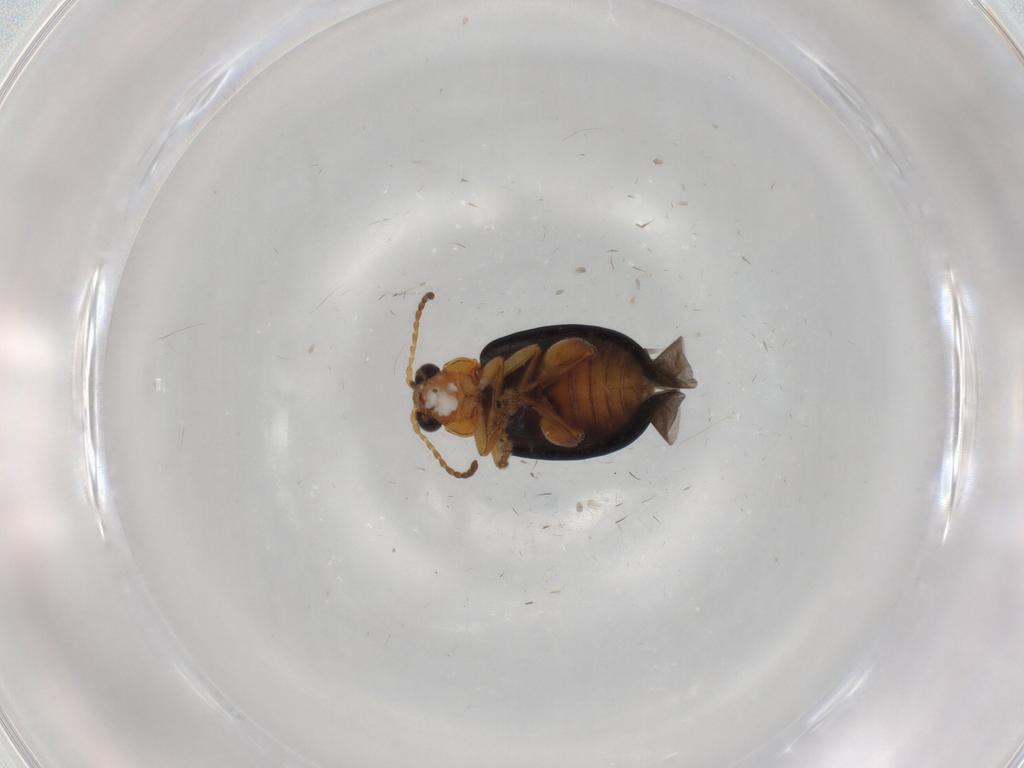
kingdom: Animalia
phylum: Arthropoda
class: Insecta
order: Coleoptera
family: Chrysomelidae
